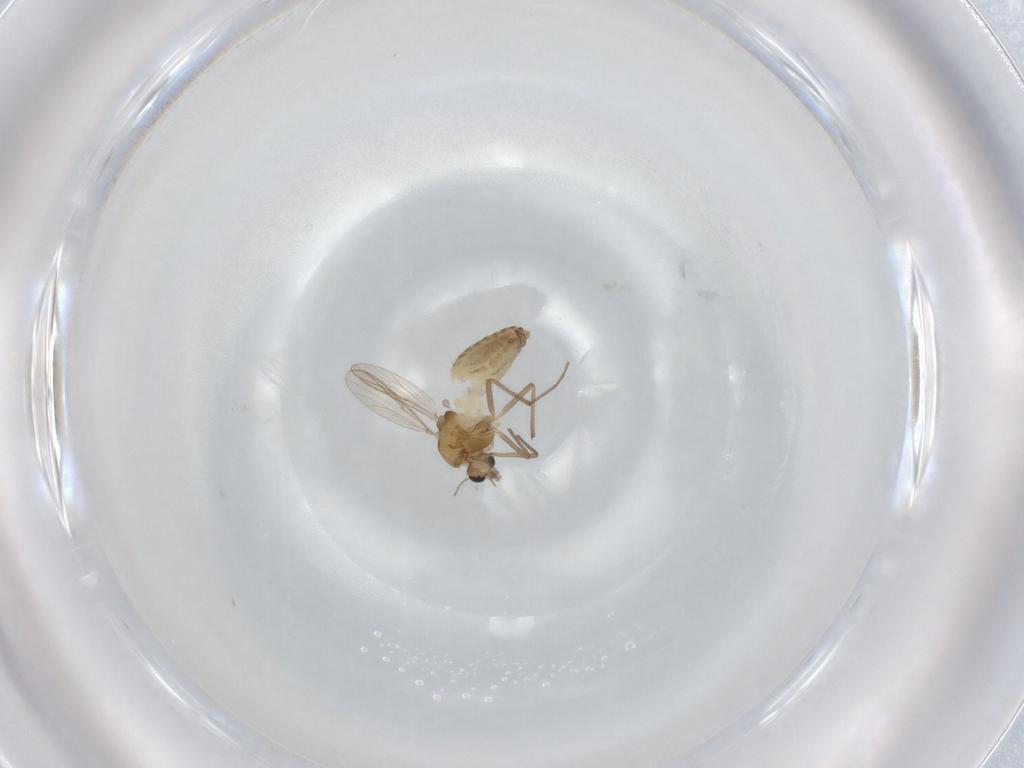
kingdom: Animalia
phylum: Arthropoda
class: Insecta
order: Diptera
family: Chironomidae
